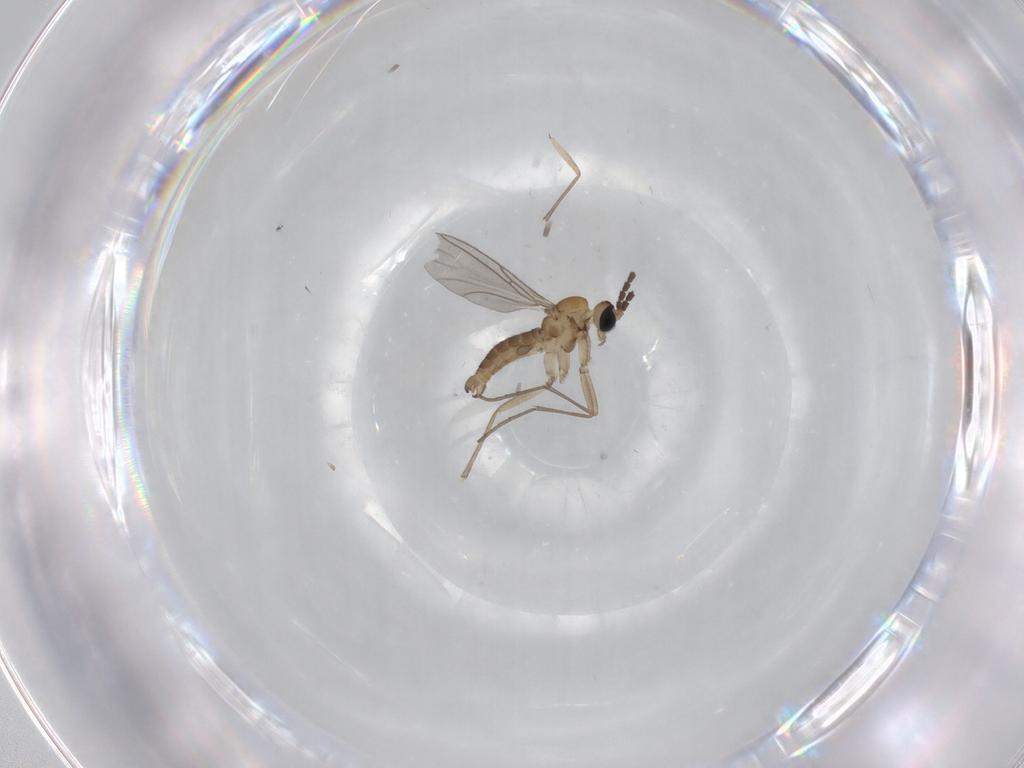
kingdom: Animalia
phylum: Arthropoda
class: Insecta
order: Diptera
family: Sciaridae
